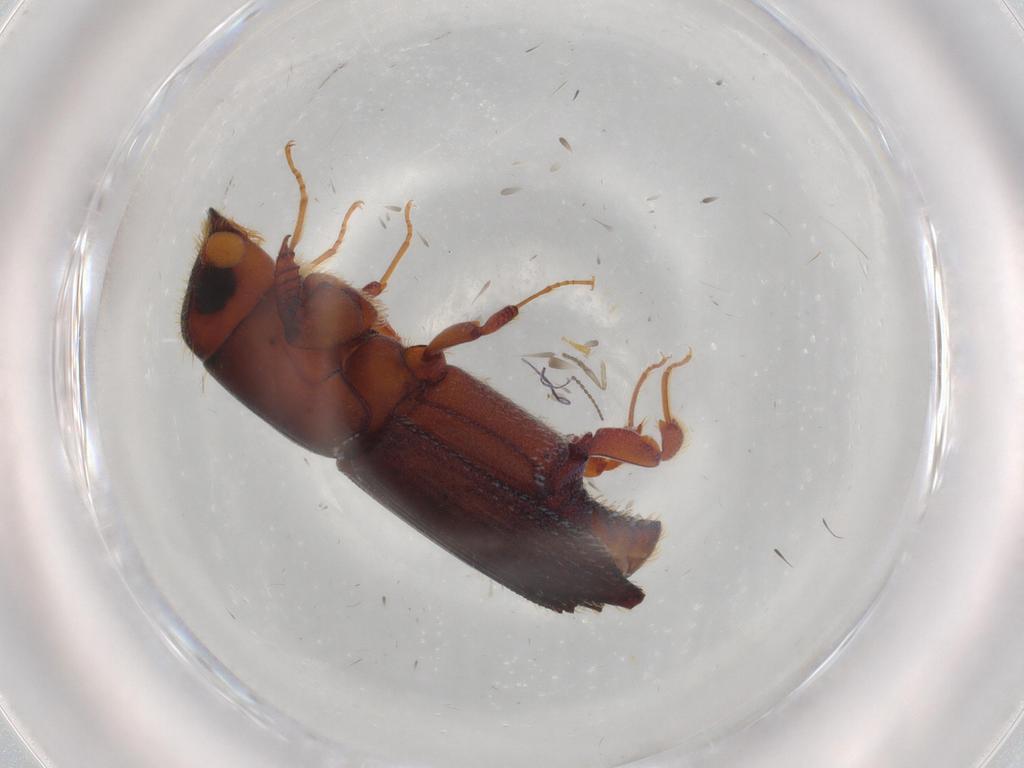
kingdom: Animalia
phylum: Arthropoda
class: Insecta
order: Coleoptera
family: Curculionidae
